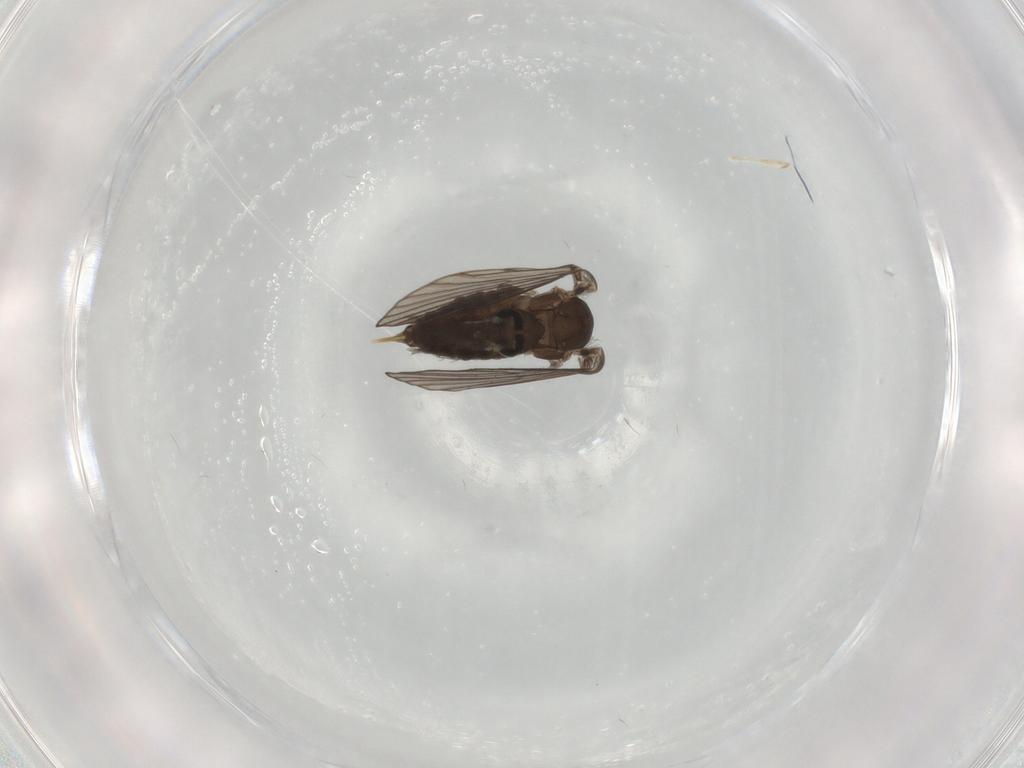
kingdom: Animalia
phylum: Arthropoda
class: Insecta
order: Diptera
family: Psychodidae
